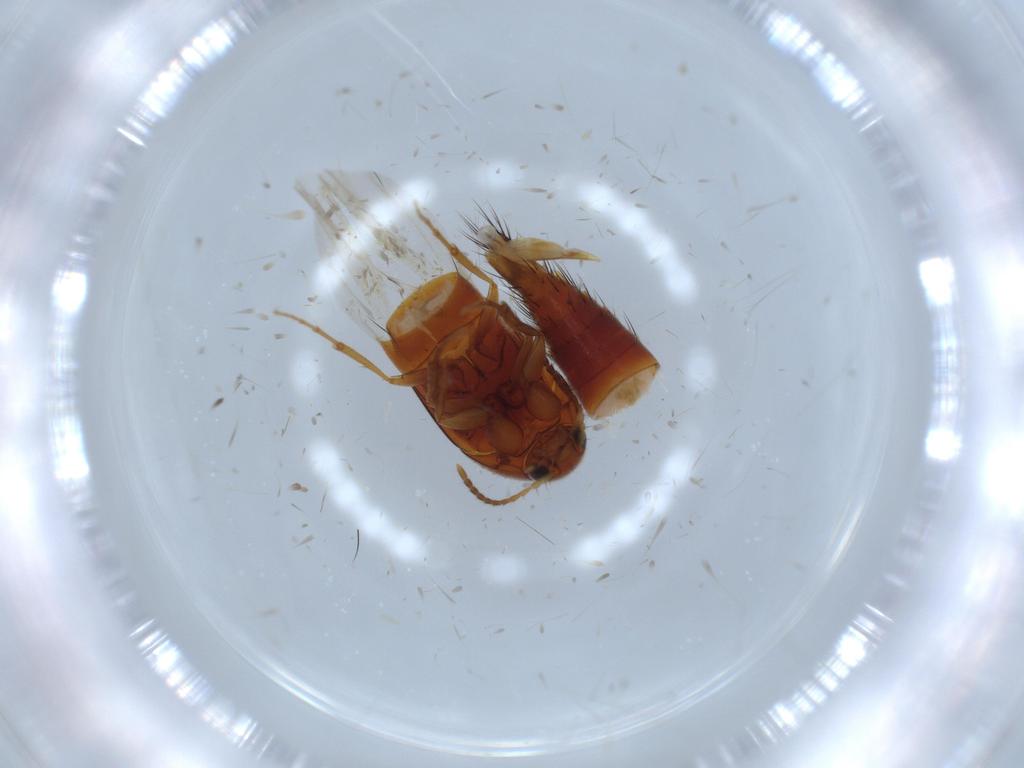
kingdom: Animalia
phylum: Arthropoda
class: Insecta
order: Coleoptera
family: Staphylinidae
